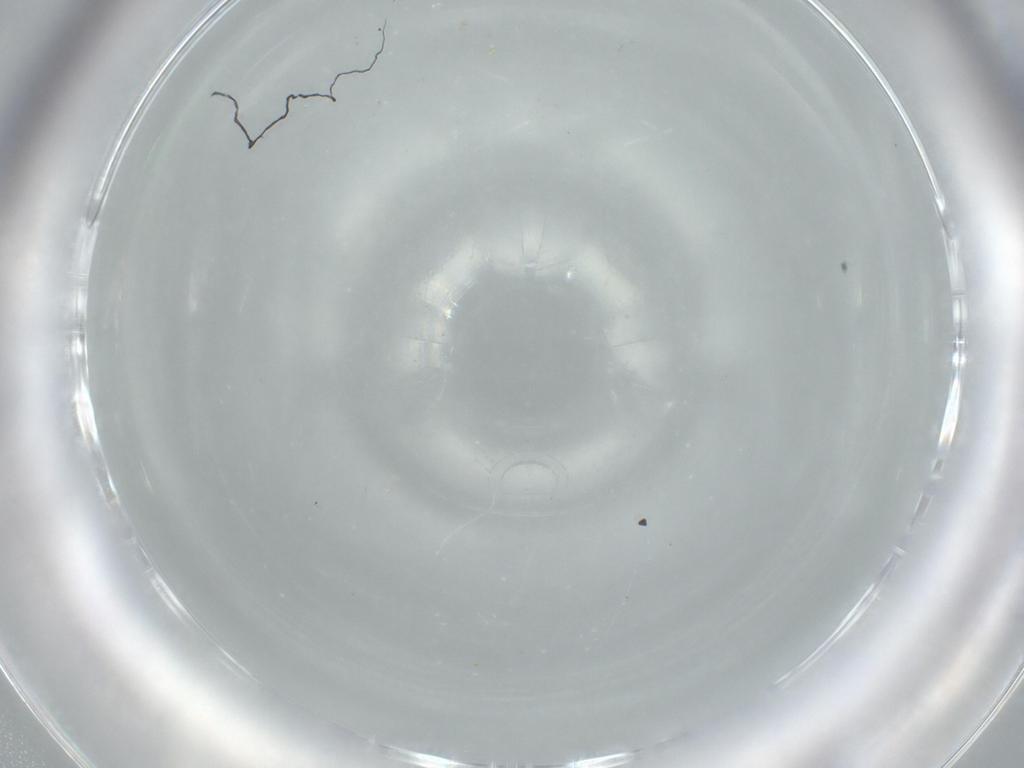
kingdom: Animalia
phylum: Arthropoda
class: Insecta
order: Diptera
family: Cecidomyiidae
